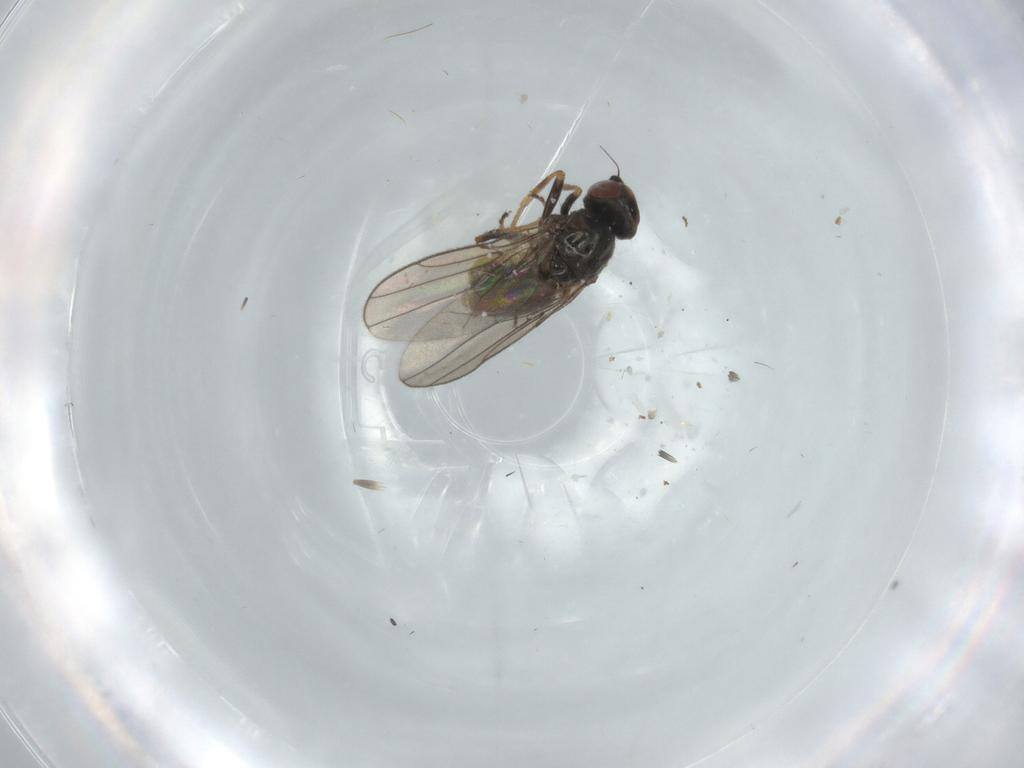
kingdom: Animalia
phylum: Arthropoda
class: Insecta
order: Diptera
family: Chloropidae
